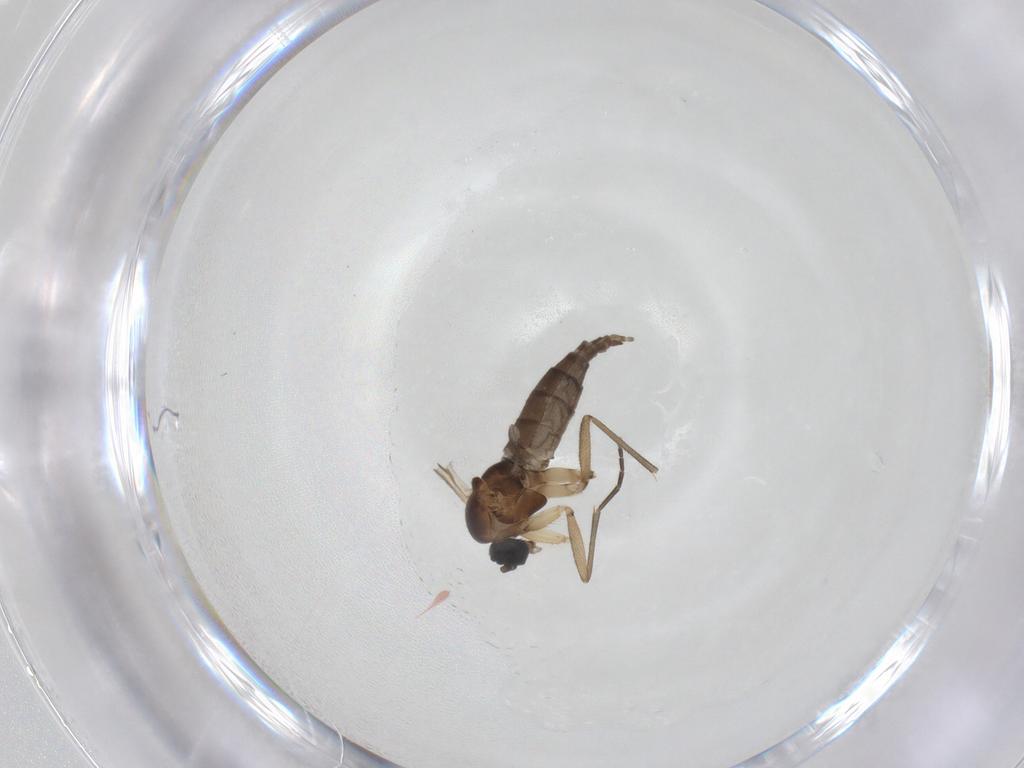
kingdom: Animalia
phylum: Arthropoda
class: Insecta
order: Diptera
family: Sciaridae
